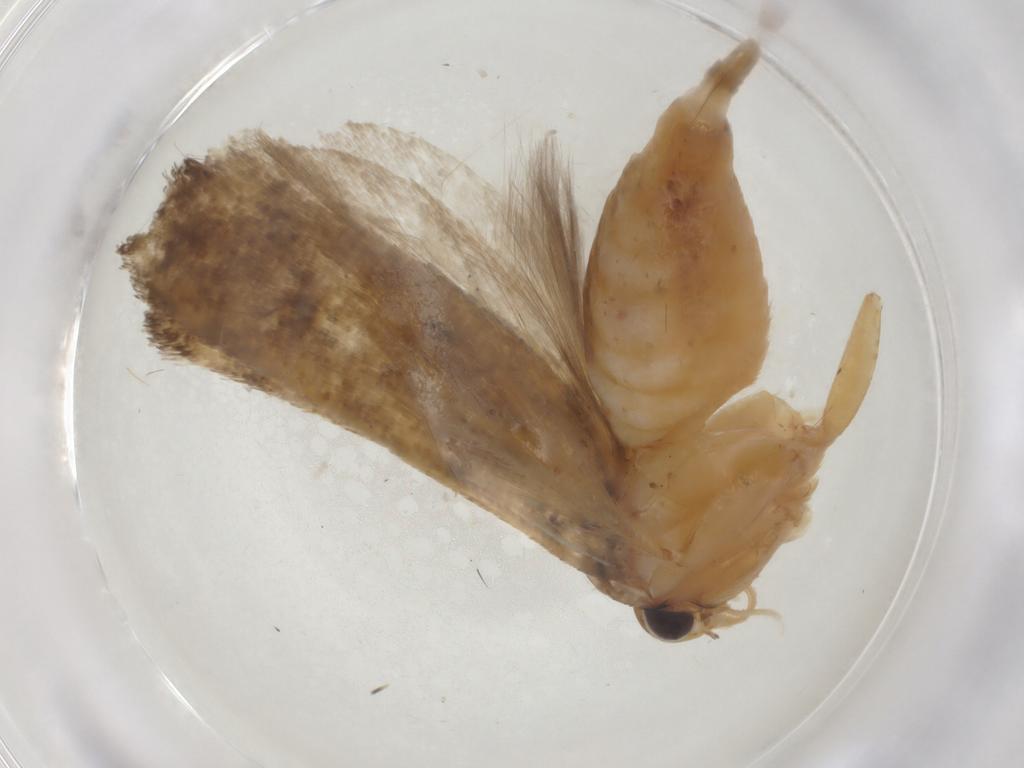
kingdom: Animalia
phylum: Arthropoda
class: Insecta
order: Lepidoptera
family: Gelechiidae
